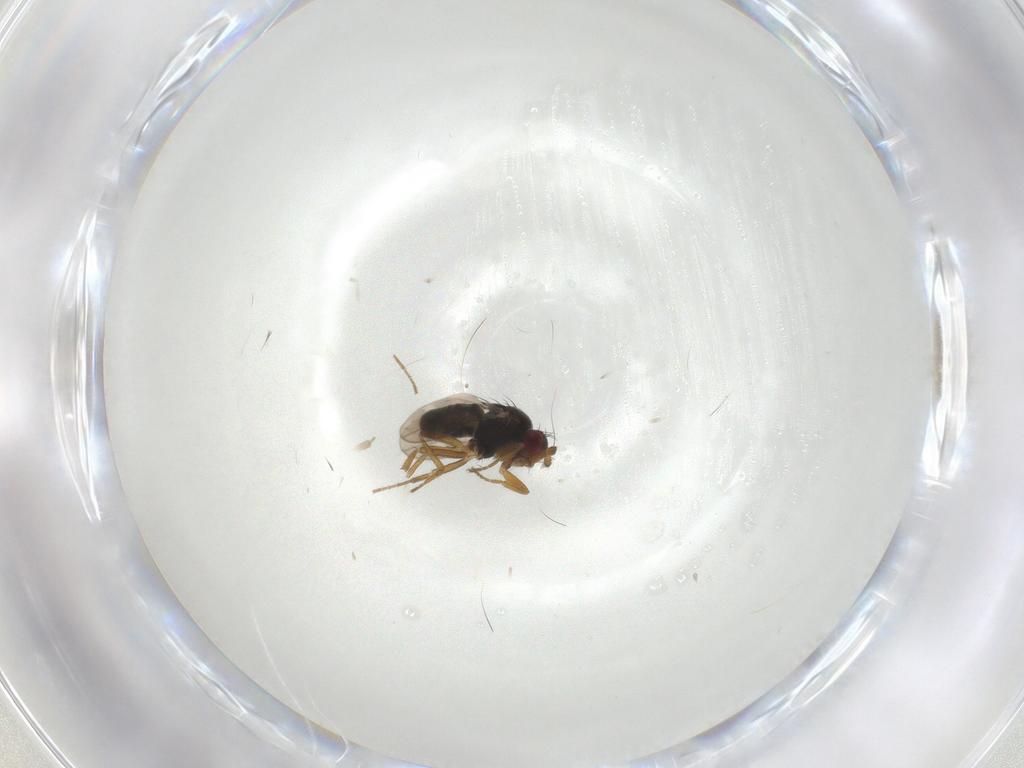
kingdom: Animalia
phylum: Arthropoda
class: Insecta
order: Diptera
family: Sphaeroceridae
